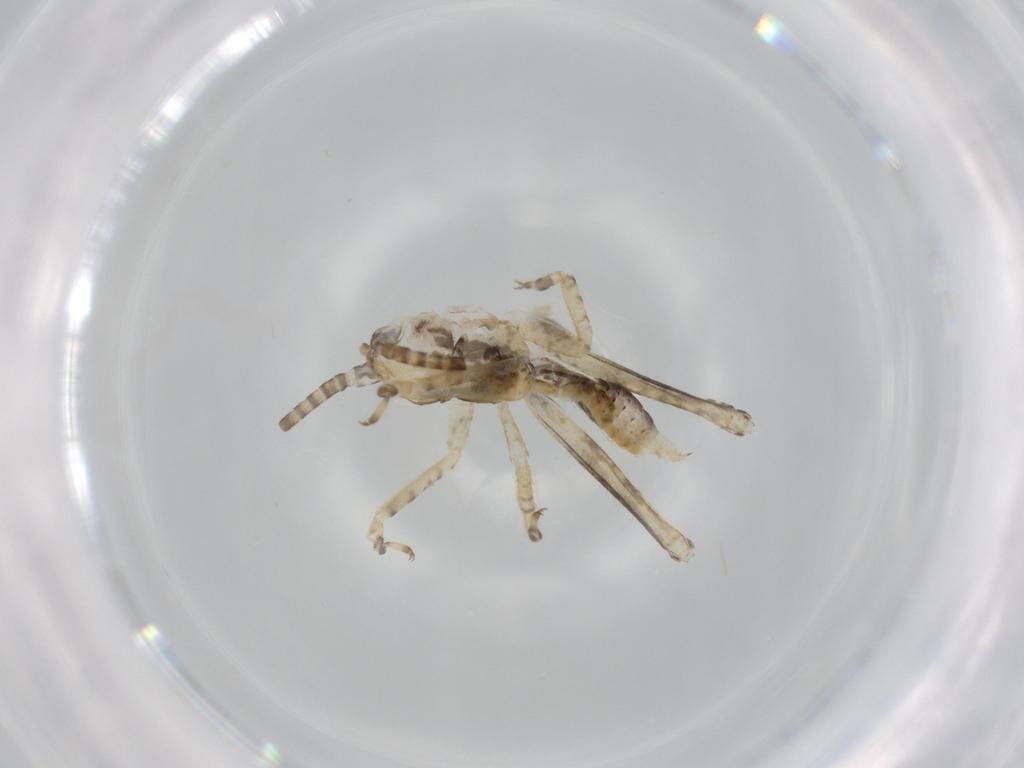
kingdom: Animalia
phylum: Arthropoda
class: Insecta
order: Orthoptera
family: Gryllidae
